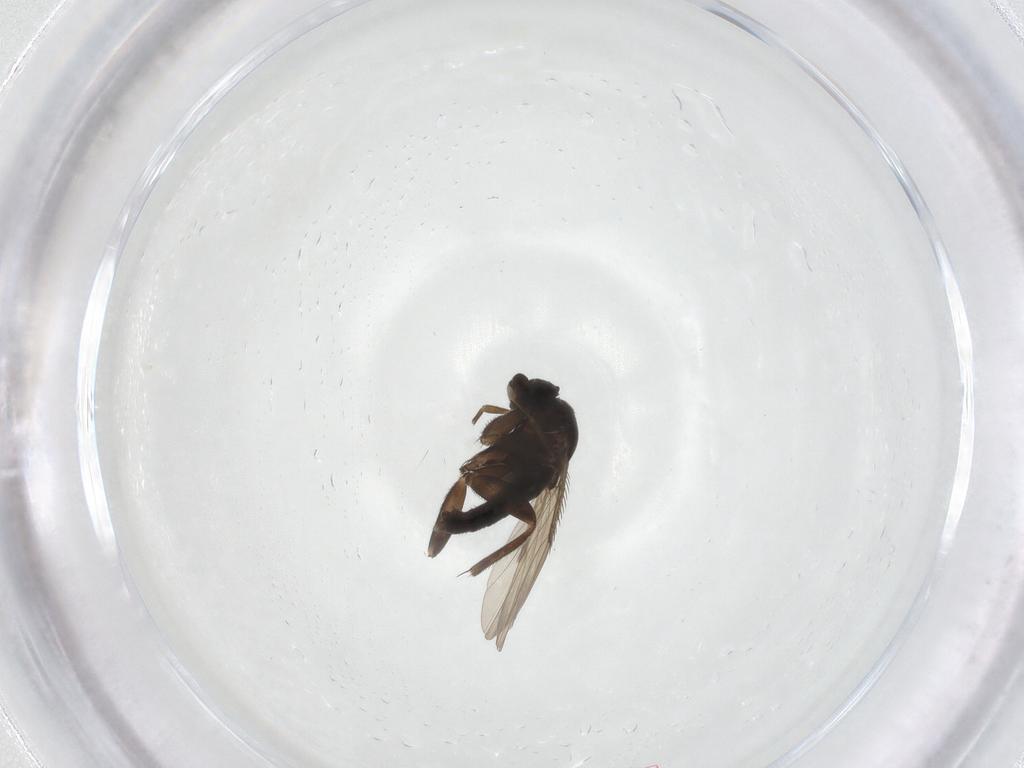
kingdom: Animalia
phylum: Arthropoda
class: Insecta
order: Diptera
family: Phoridae
